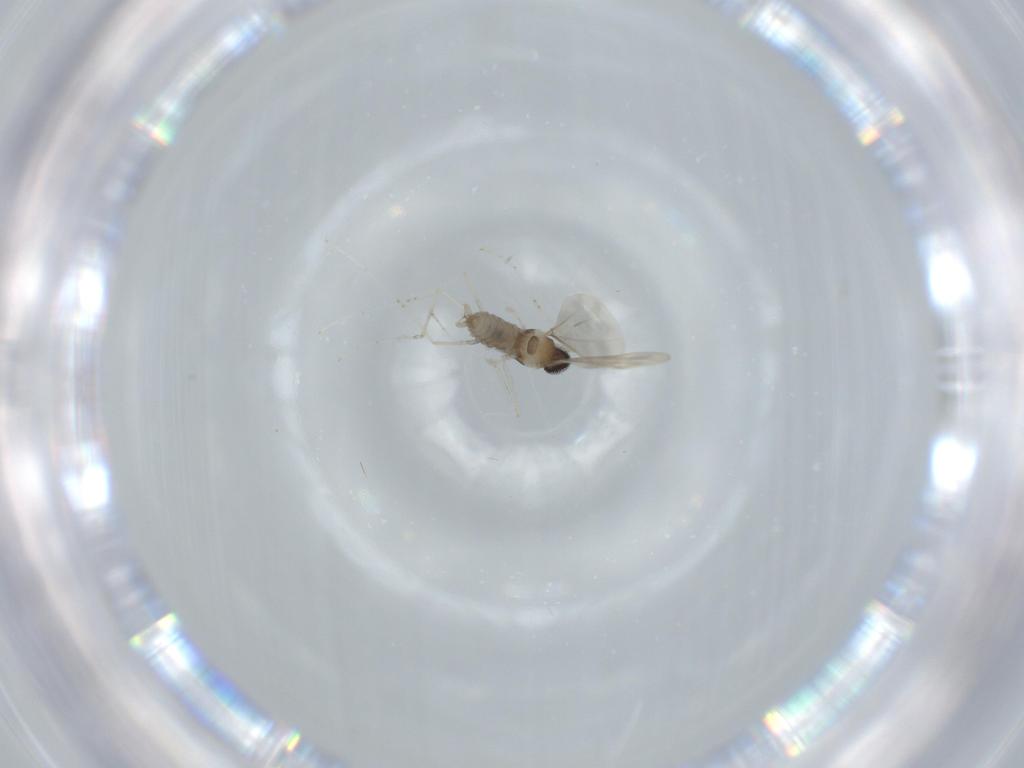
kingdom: Animalia
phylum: Arthropoda
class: Insecta
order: Diptera
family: Cecidomyiidae
